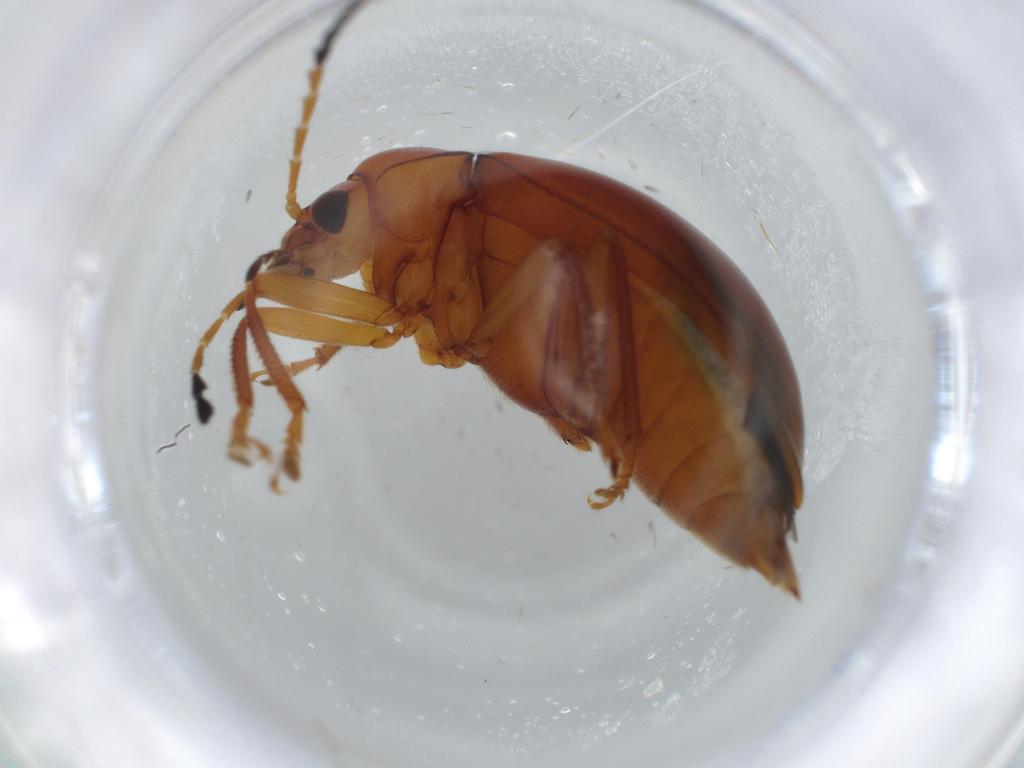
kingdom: Animalia
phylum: Arthropoda
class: Insecta
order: Coleoptera
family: Ptilodactylidae
